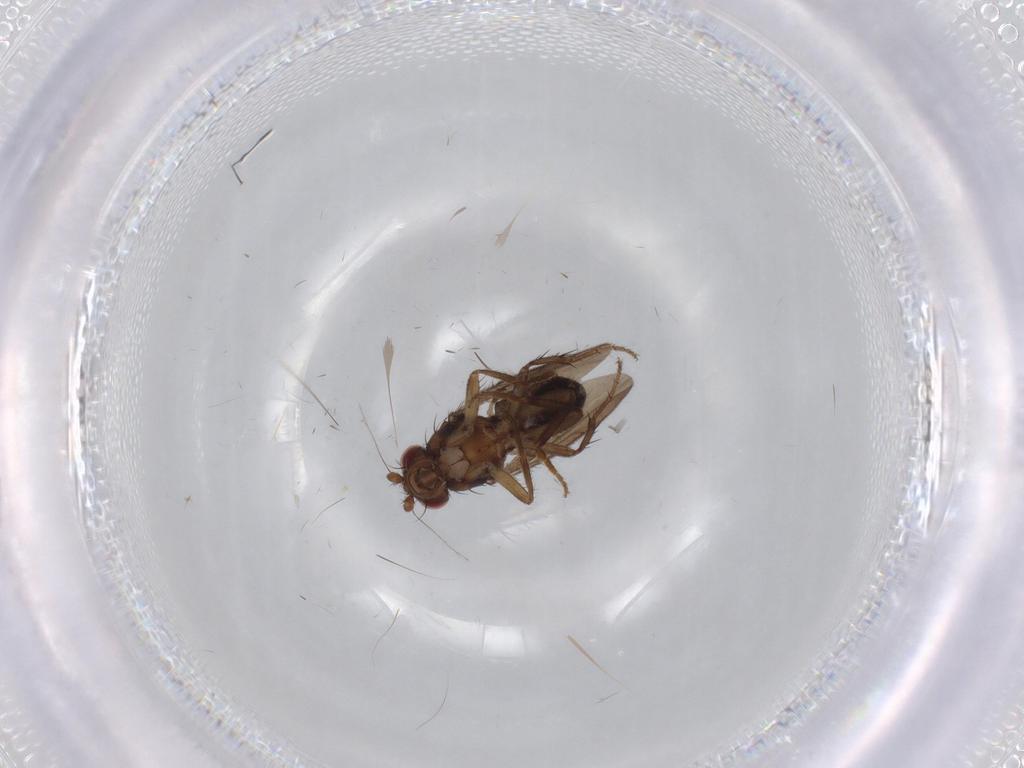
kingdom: Animalia
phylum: Arthropoda
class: Insecta
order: Diptera
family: Sphaeroceridae
